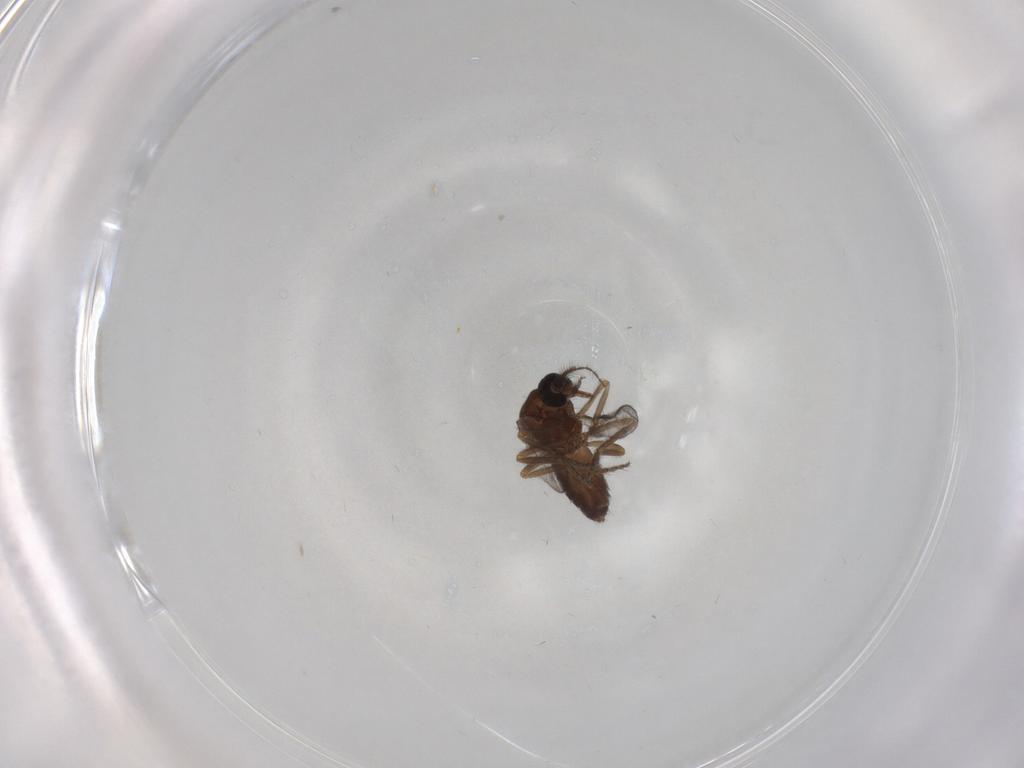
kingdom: Animalia
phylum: Arthropoda
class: Insecta
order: Diptera
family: Ceratopogonidae
